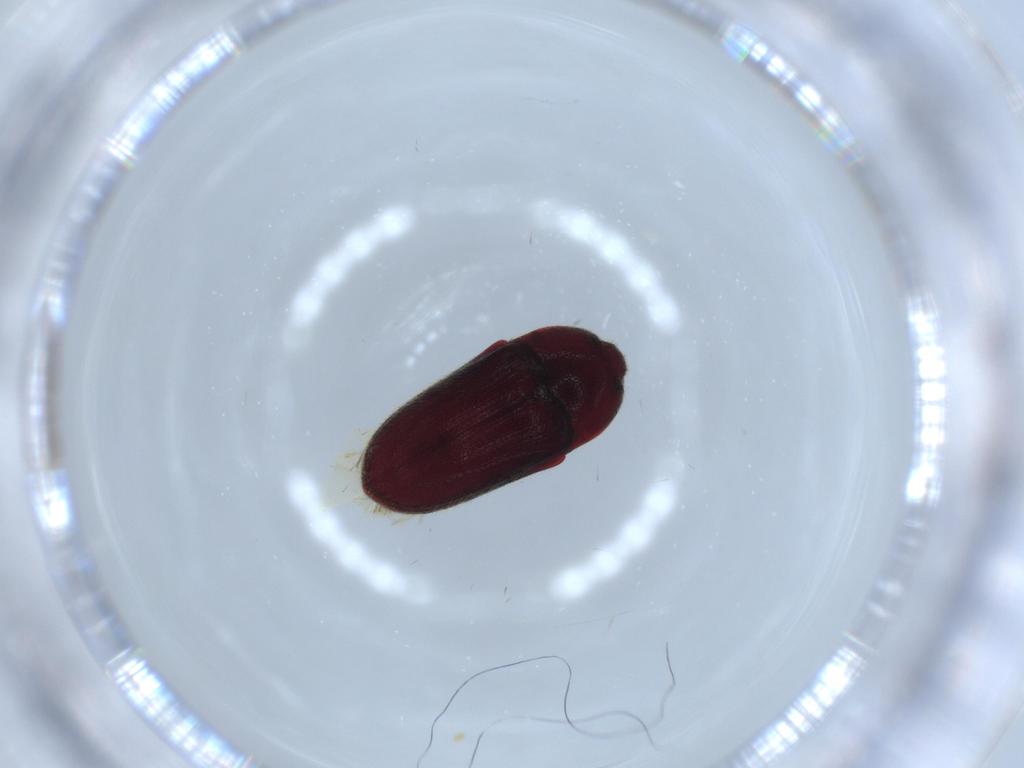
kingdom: Animalia
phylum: Arthropoda
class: Insecta
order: Coleoptera
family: Throscidae
